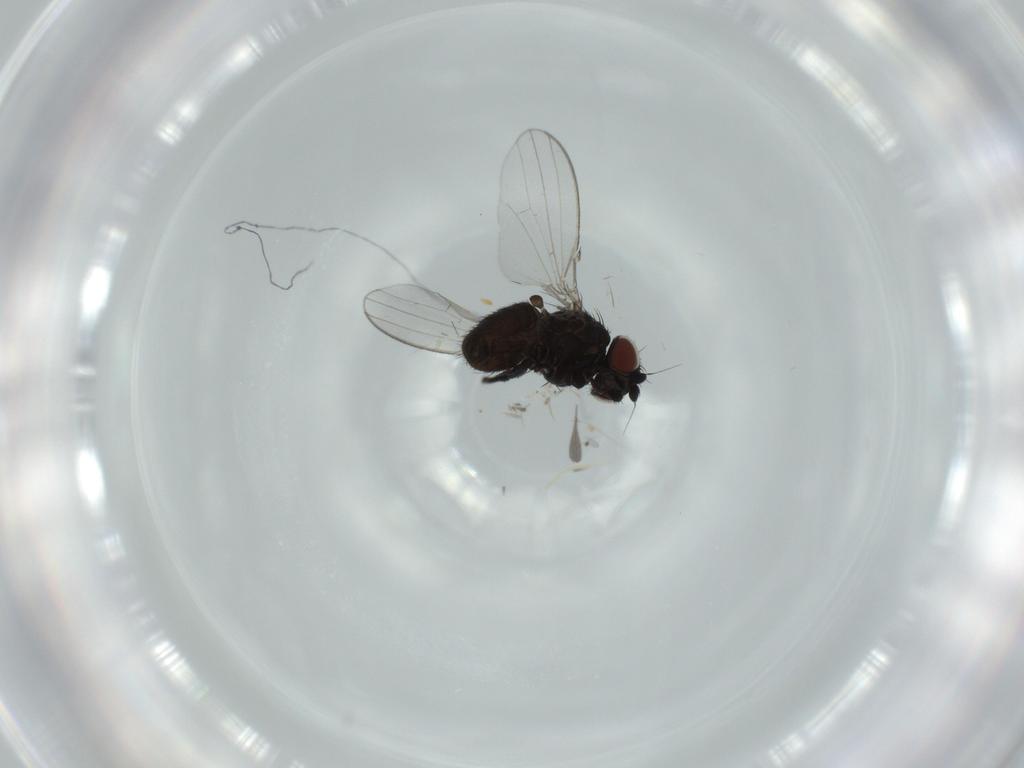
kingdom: Animalia
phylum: Arthropoda
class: Insecta
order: Diptera
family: Milichiidae
